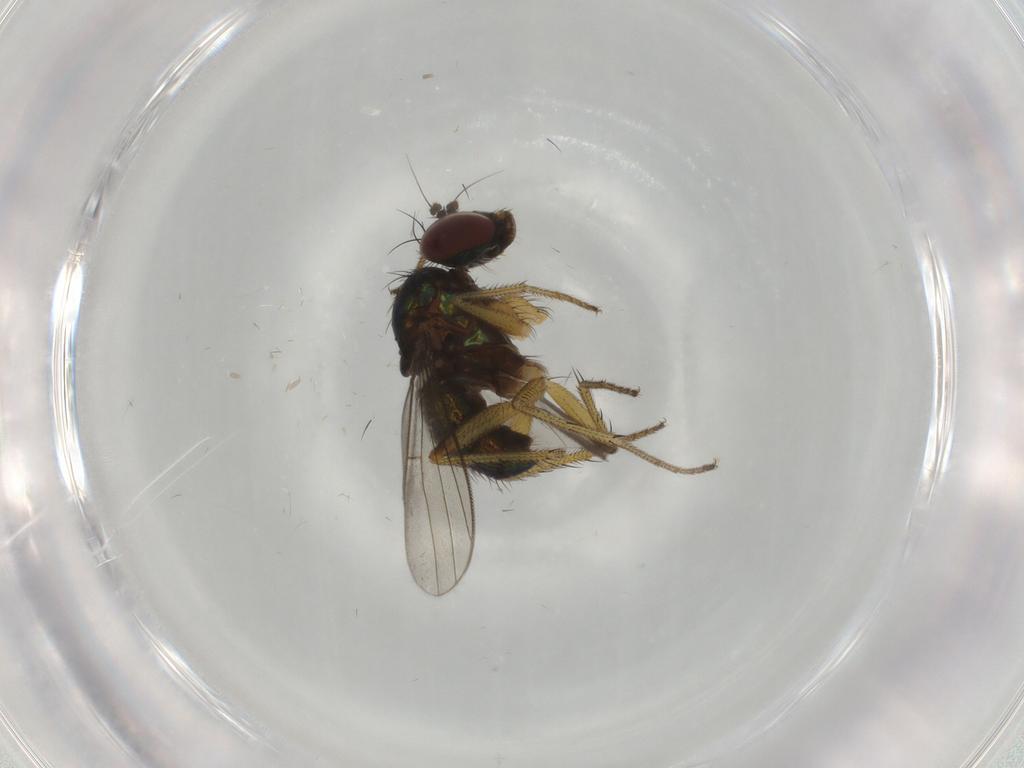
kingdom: Animalia
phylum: Arthropoda
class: Insecta
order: Diptera
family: Dolichopodidae
